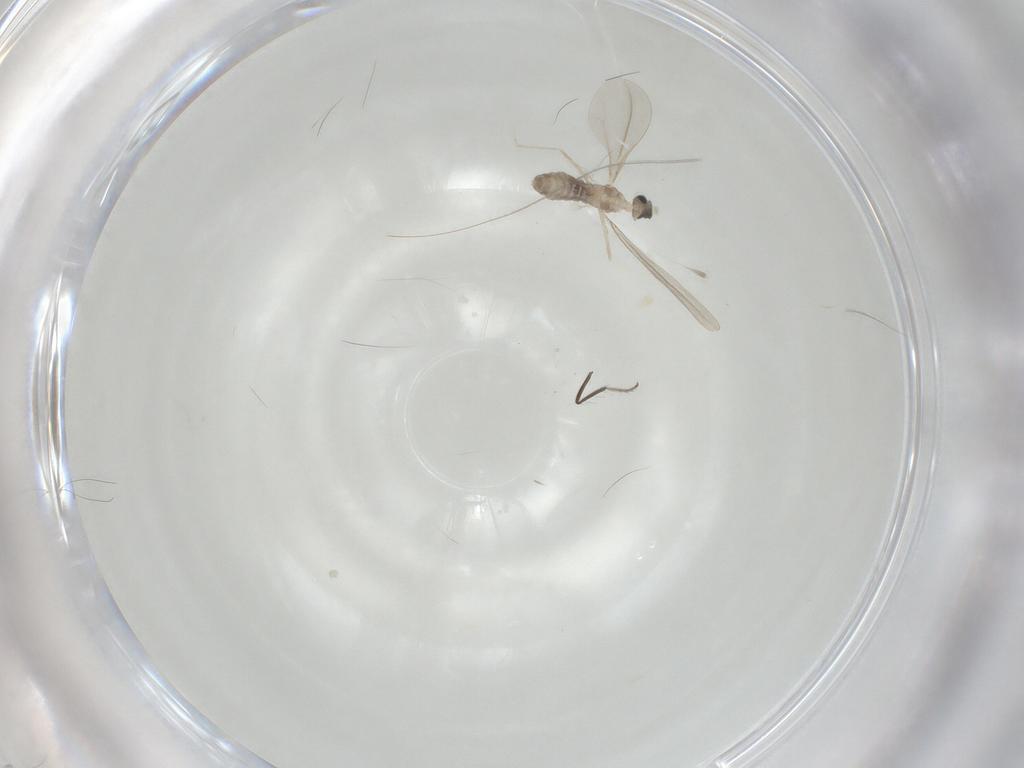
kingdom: Animalia
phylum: Arthropoda
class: Insecta
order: Diptera
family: Cecidomyiidae
